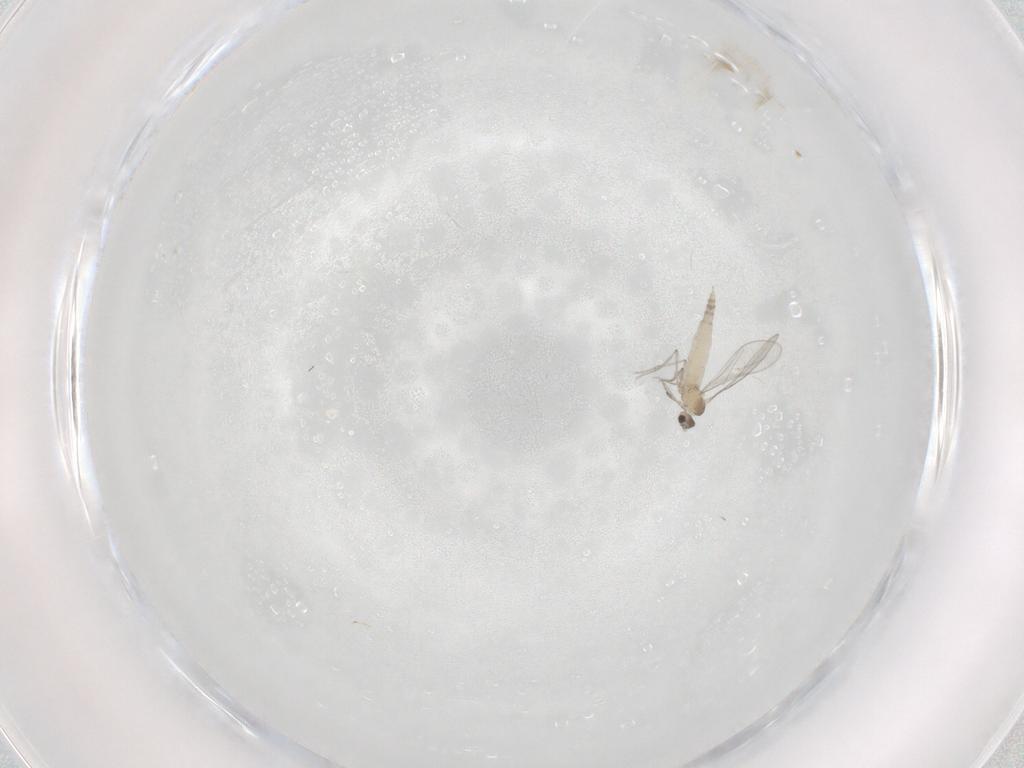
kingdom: Animalia
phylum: Arthropoda
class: Insecta
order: Diptera
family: Cecidomyiidae
